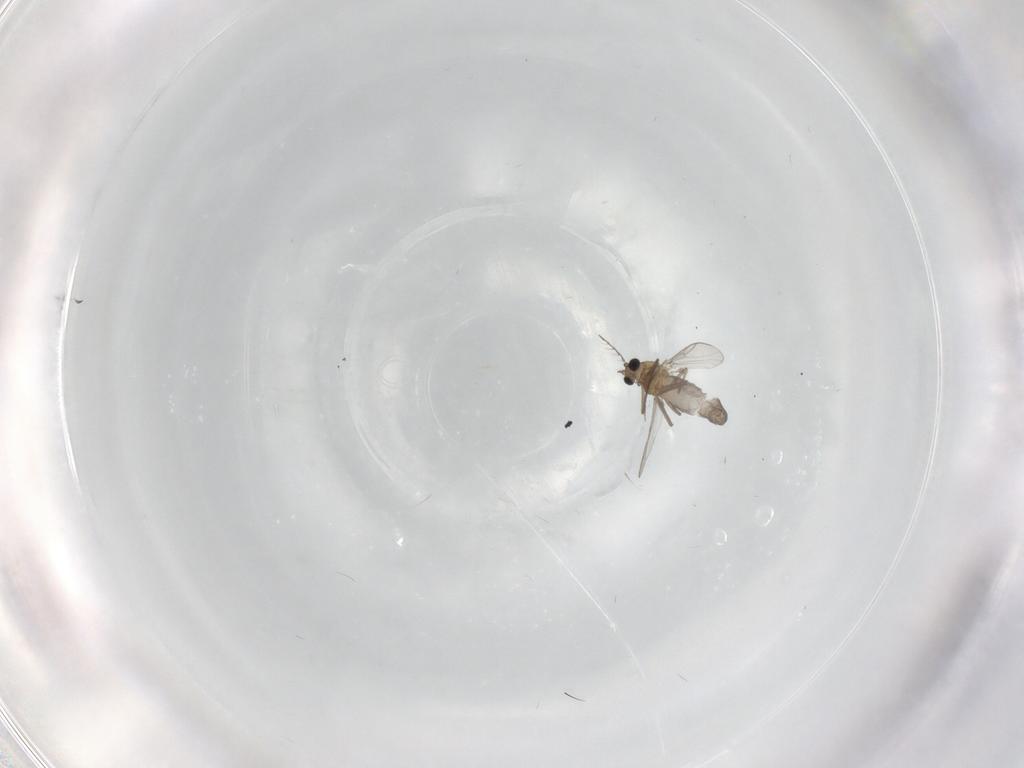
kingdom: Animalia
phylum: Arthropoda
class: Insecta
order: Diptera
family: Chironomidae
